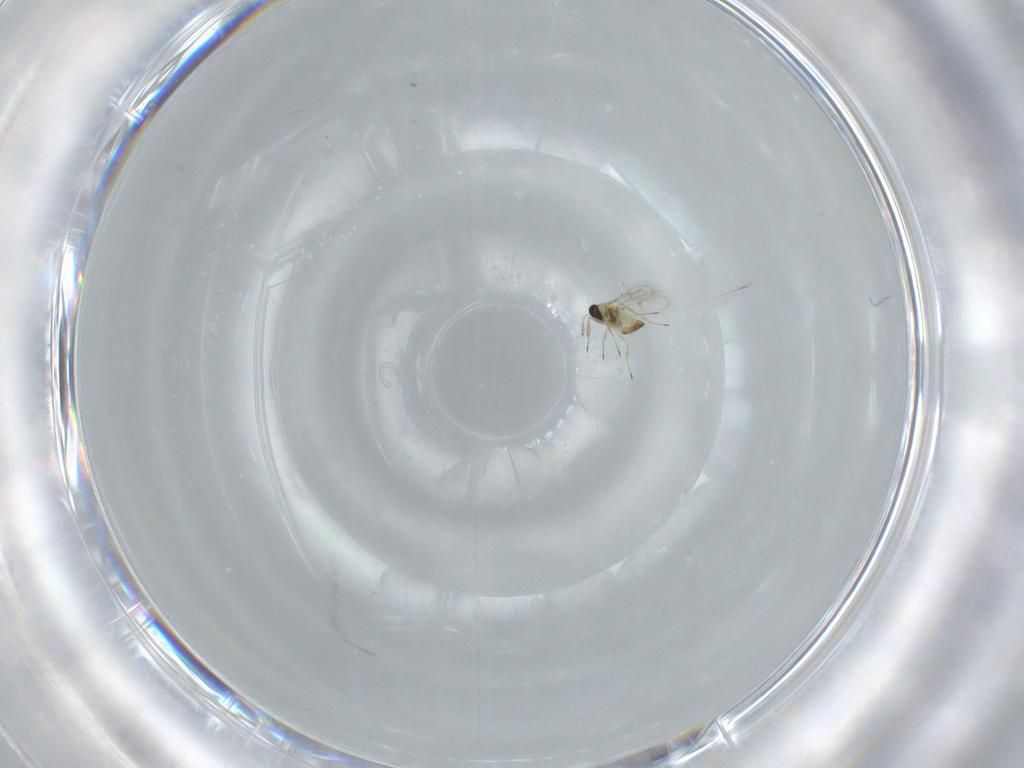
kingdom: Animalia
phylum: Arthropoda
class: Insecta
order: Hymenoptera
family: Trichogrammatidae
